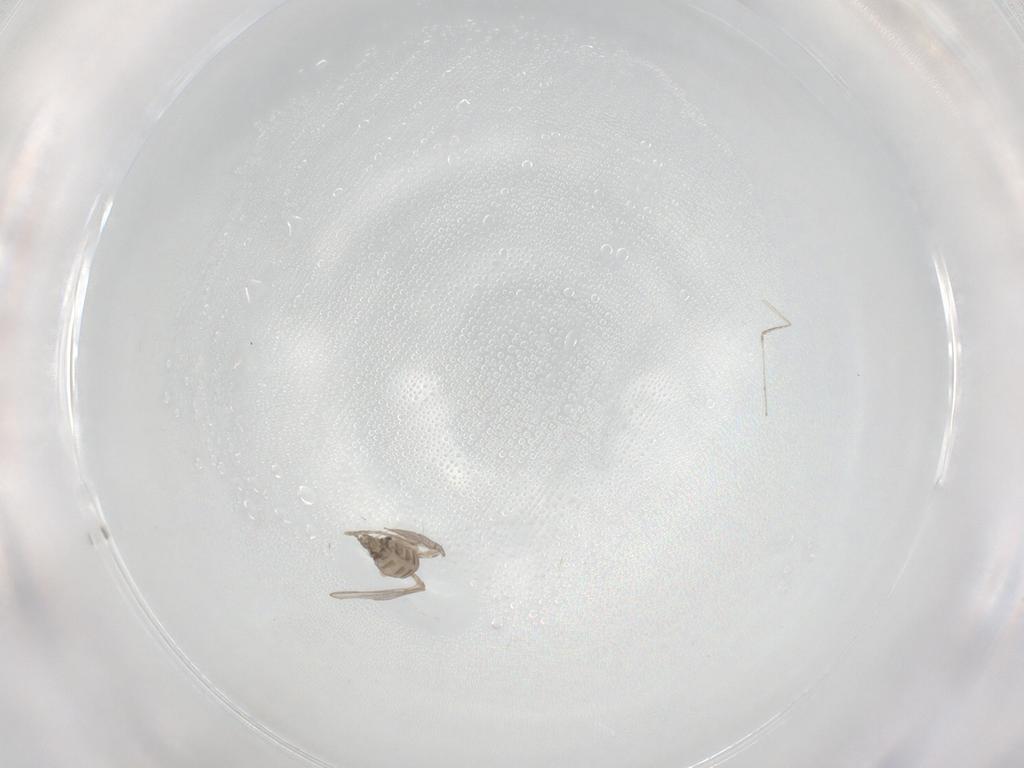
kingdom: Animalia
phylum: Arthropoda
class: Insecta
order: Diptera
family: Cecidomyiidae
